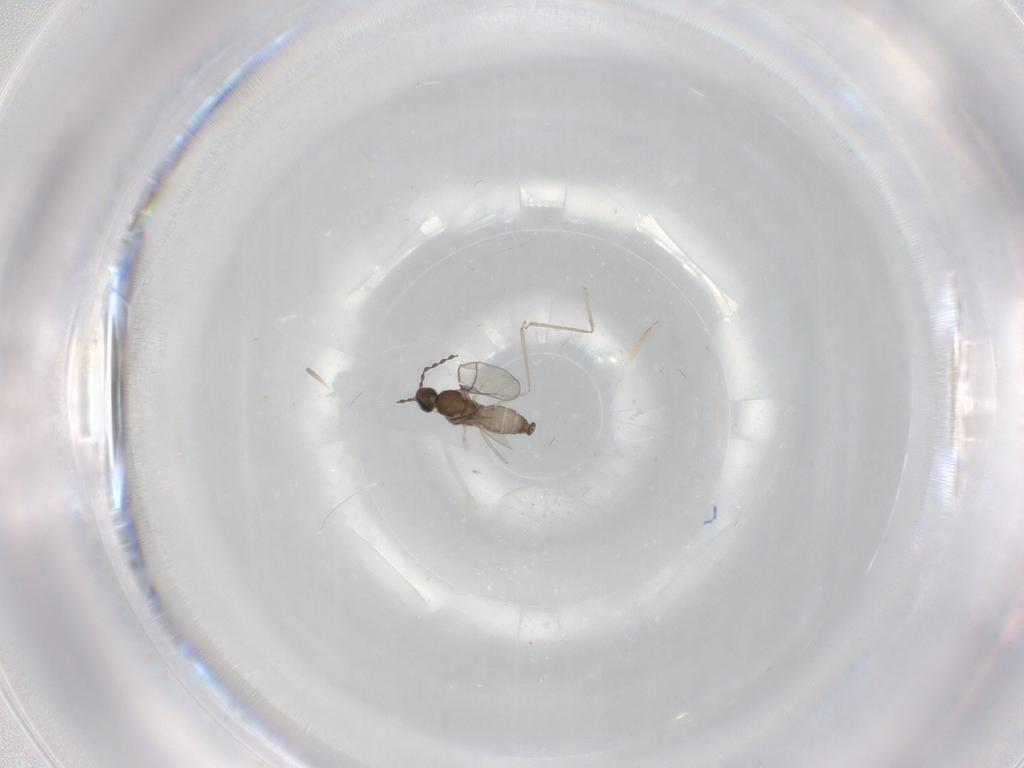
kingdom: Animalia
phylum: Arthropoda
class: Insecta
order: Diptera
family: Cecidomyiidae
